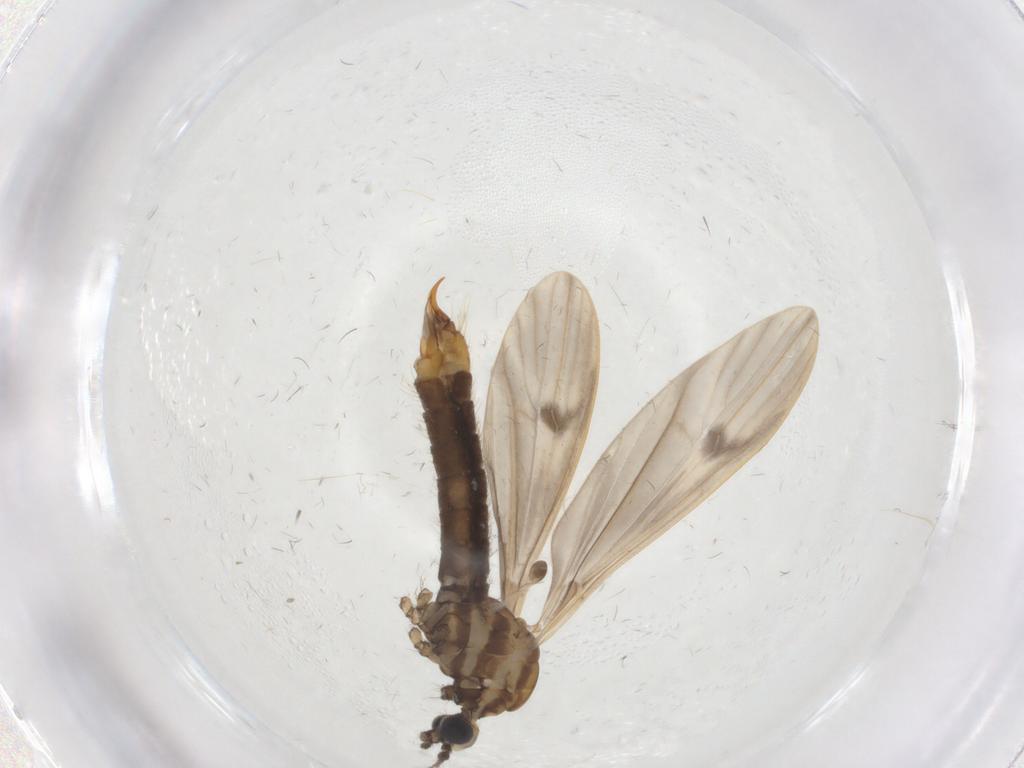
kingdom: Animalia
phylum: Arthropoda
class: Insecta
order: Diptera
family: Limoniidae
